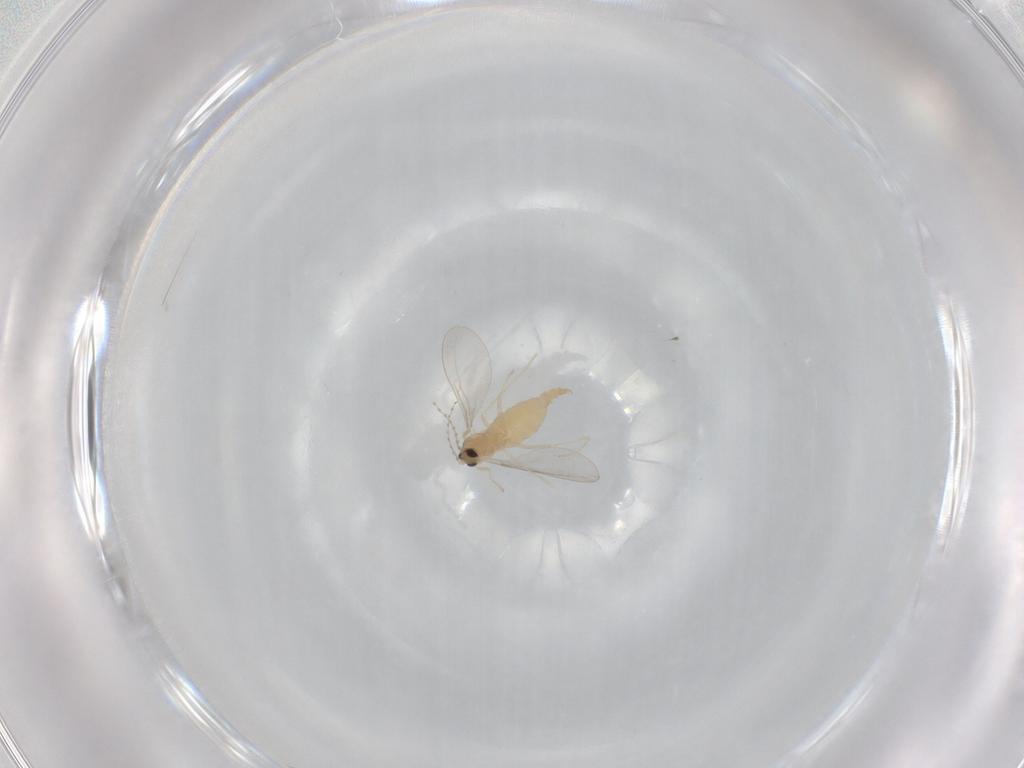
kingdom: Animalia
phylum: Arthropoda
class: Insecta
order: Diptera
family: Cecidomyiidae
